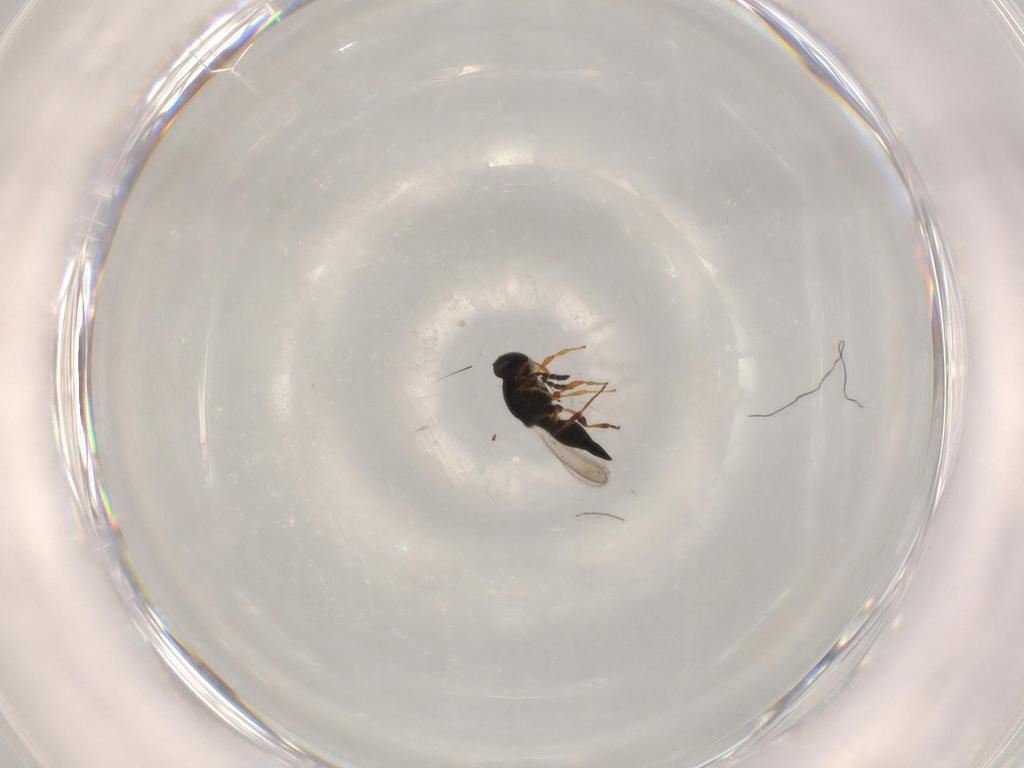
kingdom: Animalia
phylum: Arthropoda
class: Insecta
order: Hymenoptera
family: Platygastridae
